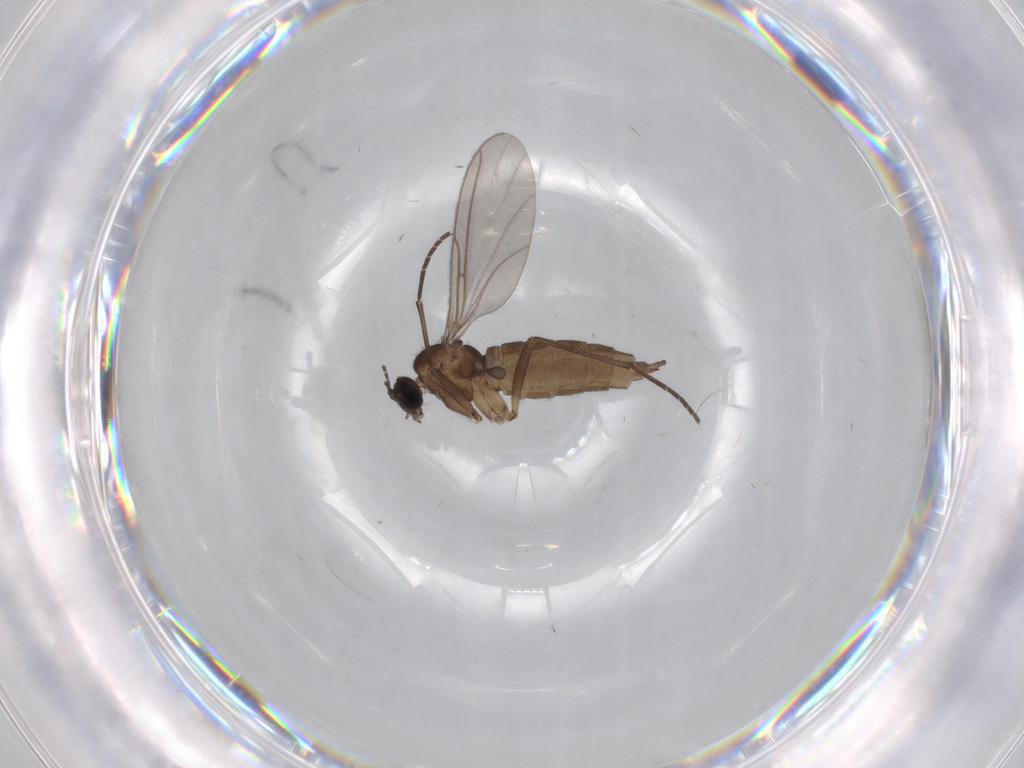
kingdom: Animalia
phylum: Arthropoda
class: Insecta
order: Diptera
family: Sciaridae
